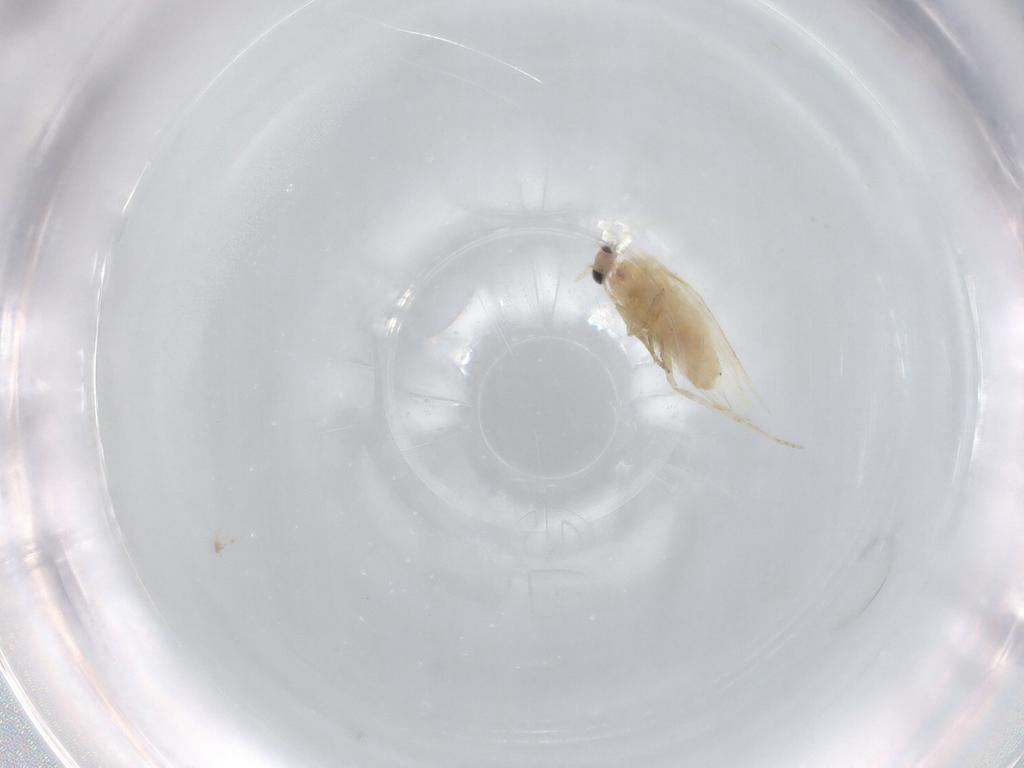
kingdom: Animalia
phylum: Arthropoda
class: Insecta
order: Lepidoptera
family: Nepticulidae
